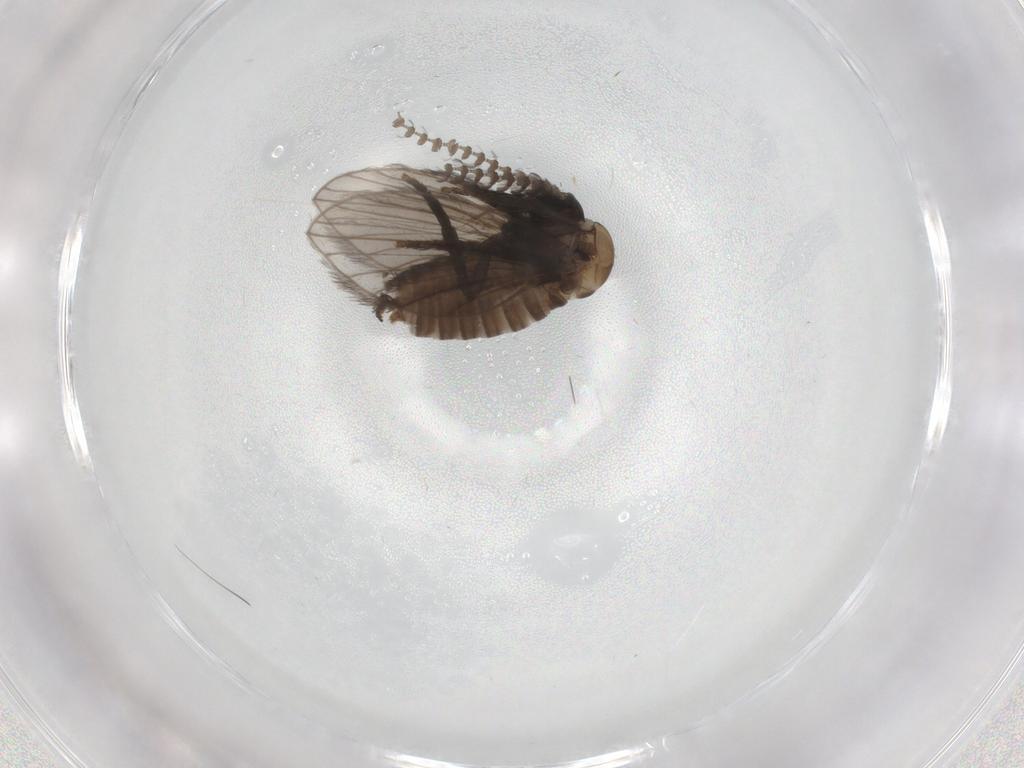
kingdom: Animalia
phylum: Arthropoda
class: Insecta
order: Diptera
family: Psychodidae
